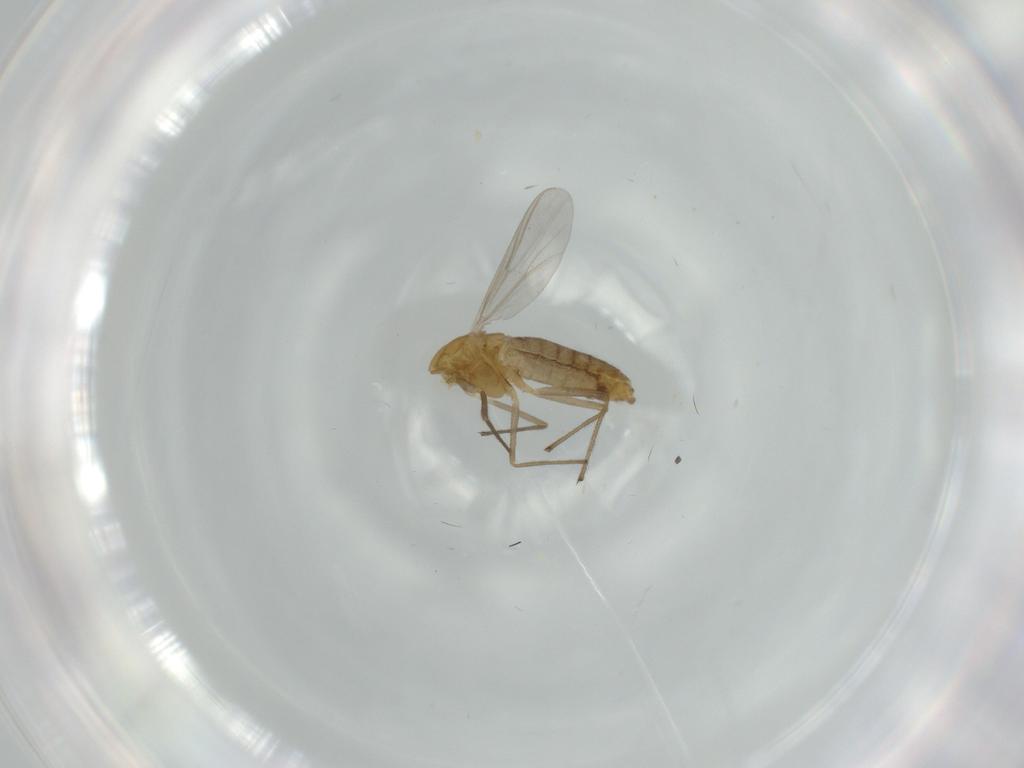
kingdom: Animalia
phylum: Arthropoda
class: Insecta
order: Diptera
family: Chironomidae
